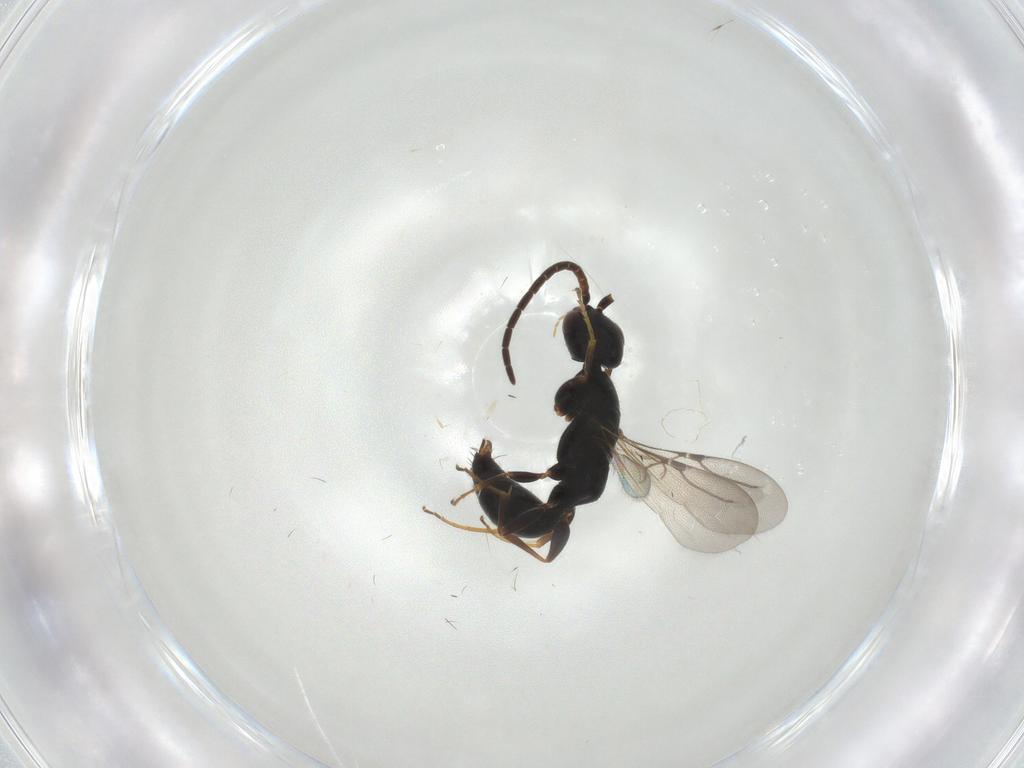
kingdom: Animalia
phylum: Arthropoda
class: Insecta
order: Hymenoptera
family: Bethylidae
